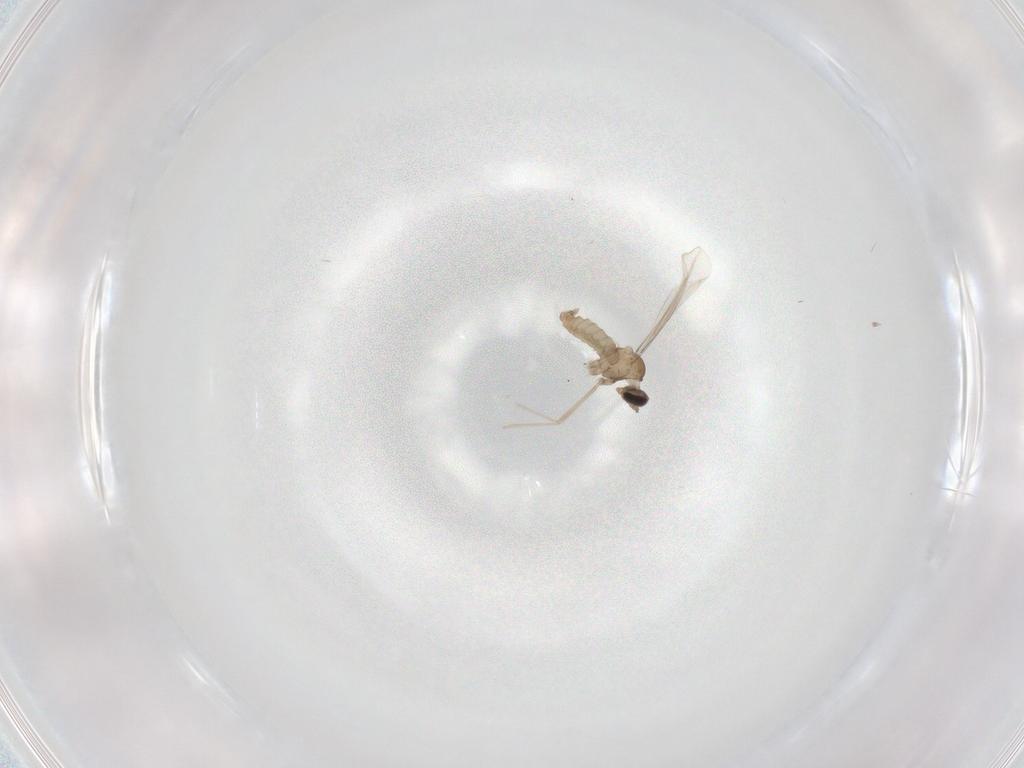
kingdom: Animalia
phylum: Arthropoda
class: Insecta
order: Diptera
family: Cecidomyiidae
